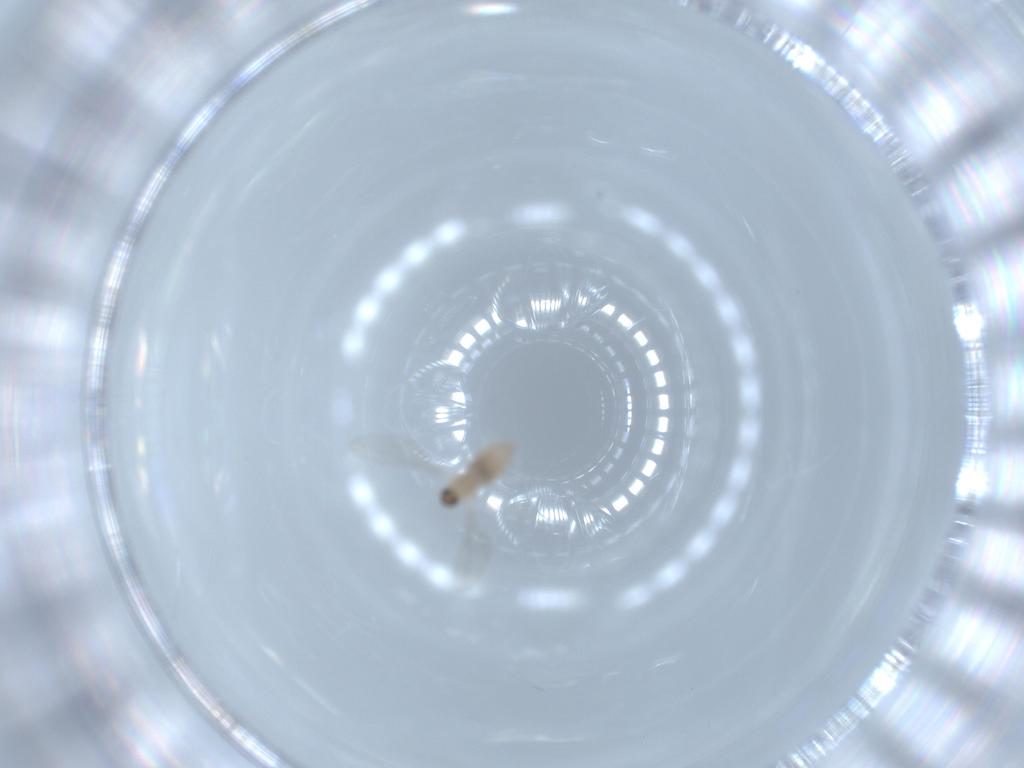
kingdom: Animalia
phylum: Arthropoda
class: Insecta
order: Diptera
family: Cecidomyiidae
